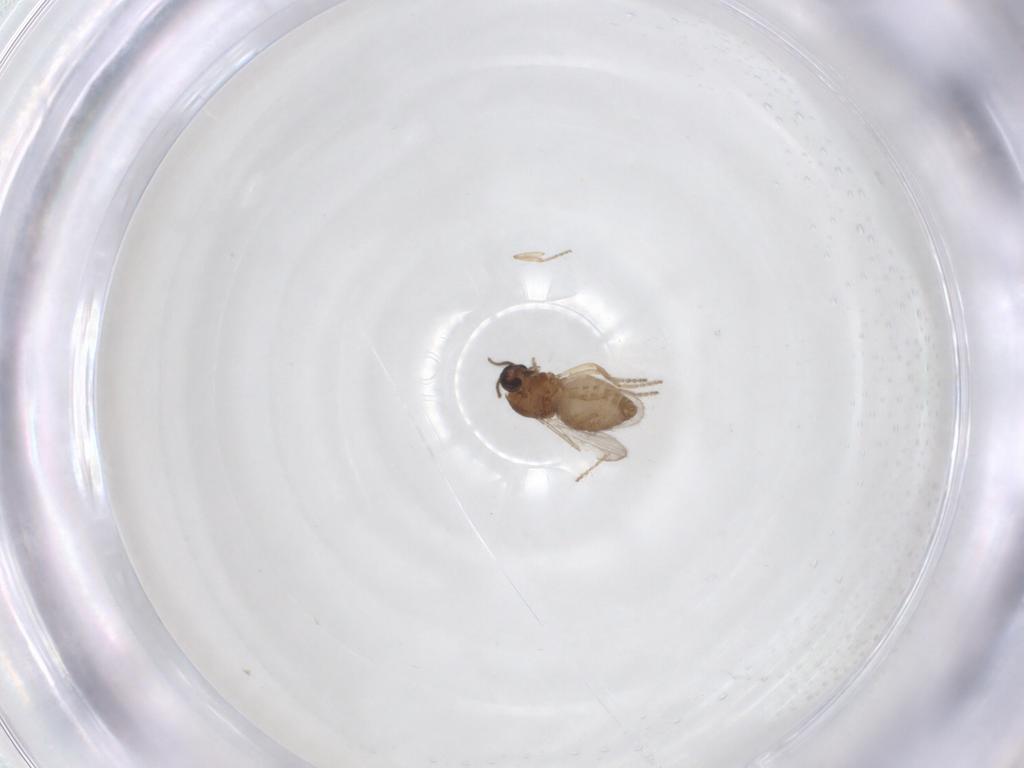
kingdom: Animalia
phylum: Arthropoda
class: Insecta
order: Diptera
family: Ceratopogonidae
